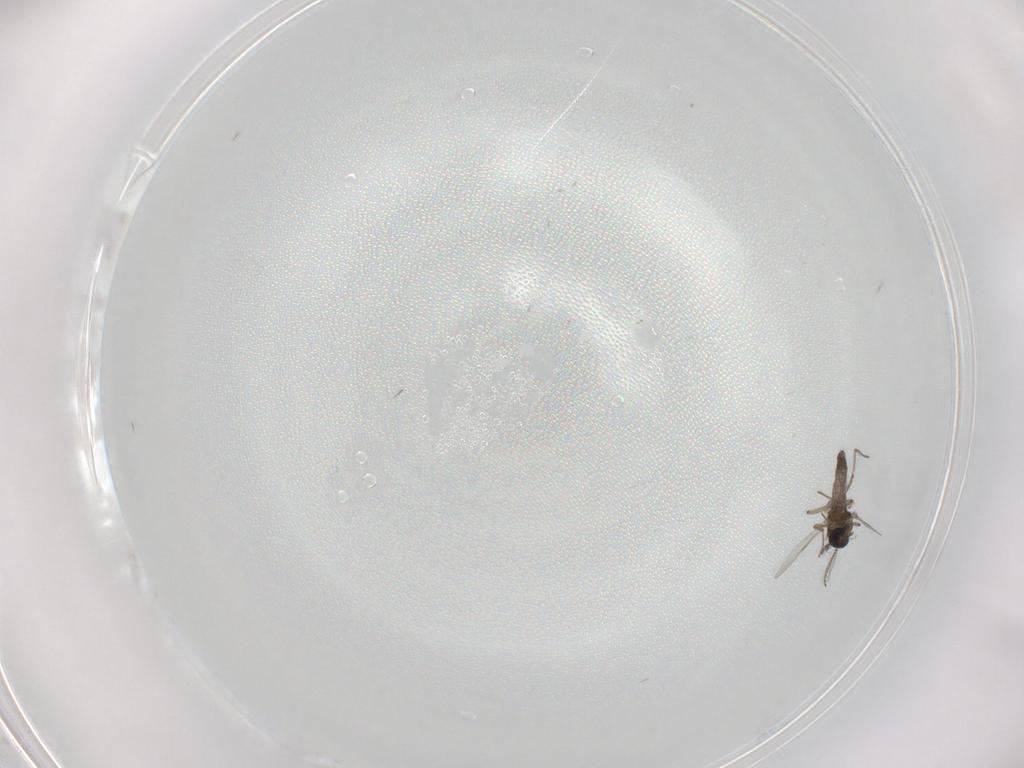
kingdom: Animalia
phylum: Arthropoda
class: Insecta
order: Diptera
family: Ceratopogonidae
